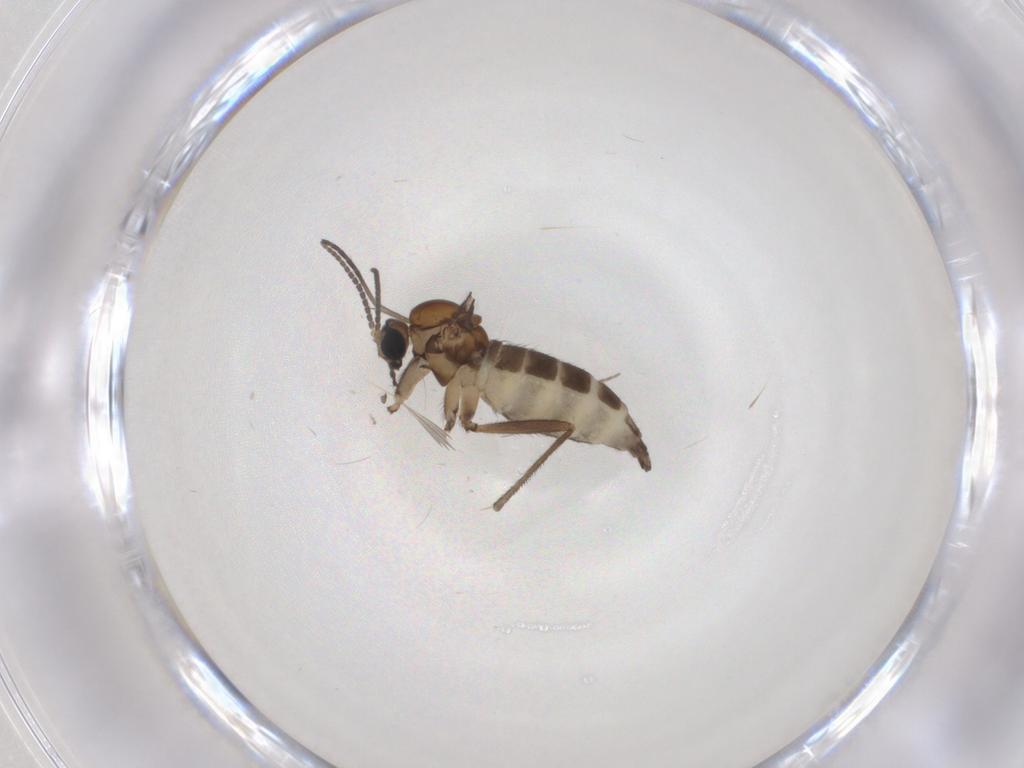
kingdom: Animalia
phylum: Arthropoda
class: Insecta
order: Diptera
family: Sciaridae
